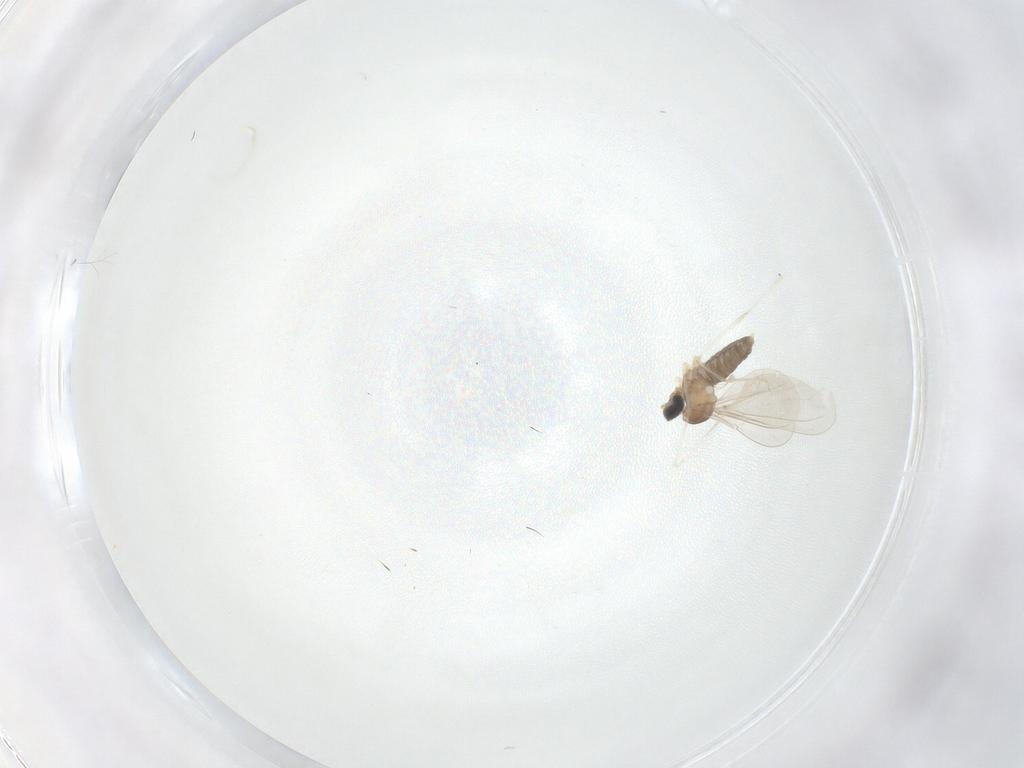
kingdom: Animalia
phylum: Arthropoda
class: Insecta
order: Diptera
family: Cecidomyiidae
